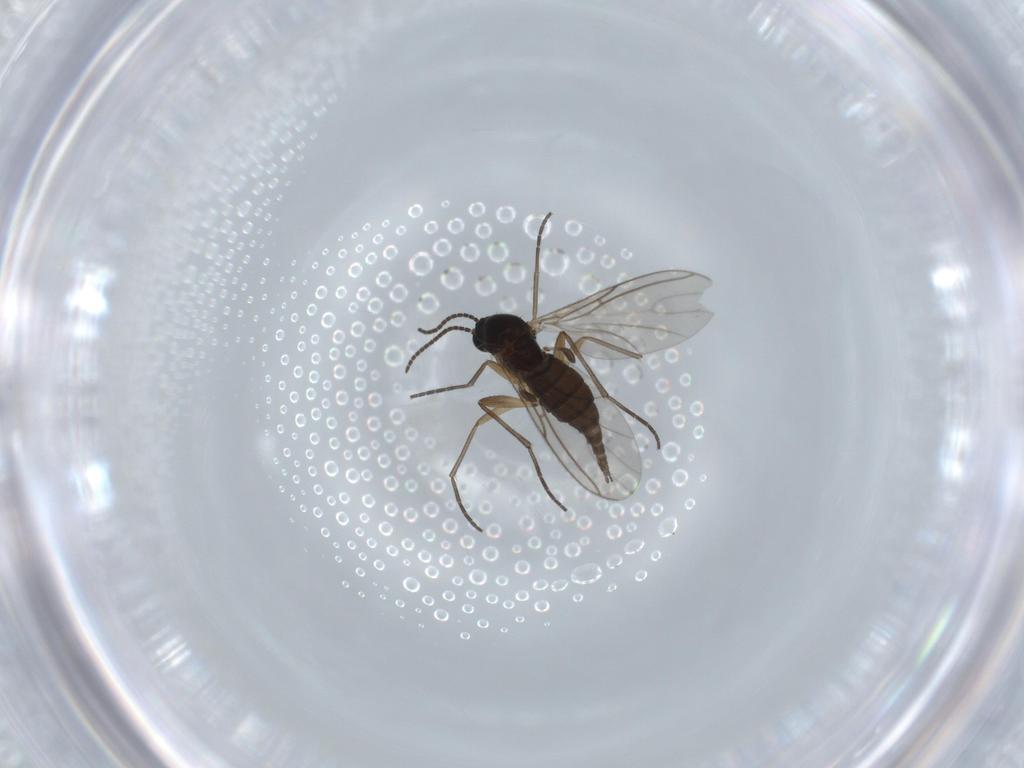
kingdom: Animalia
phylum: Arthropoda
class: Insecta
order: Diptera
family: Sciaridae
